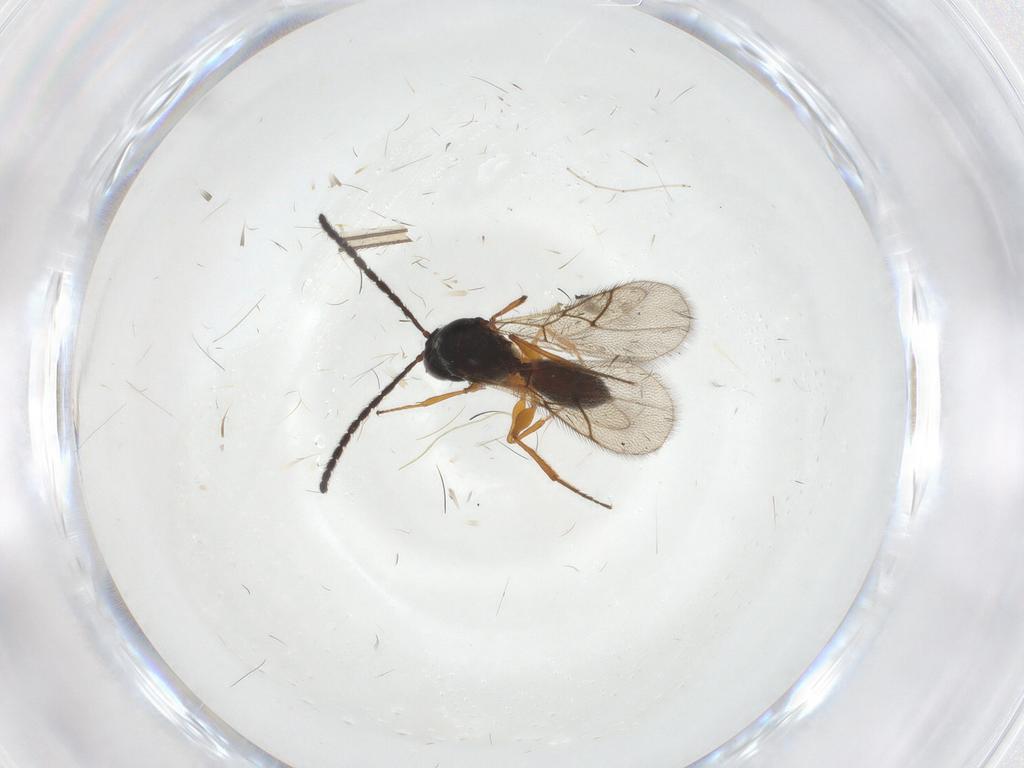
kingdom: Animalia
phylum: Arthropoda
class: Insecta
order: Hymenoptera
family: Figitidae
